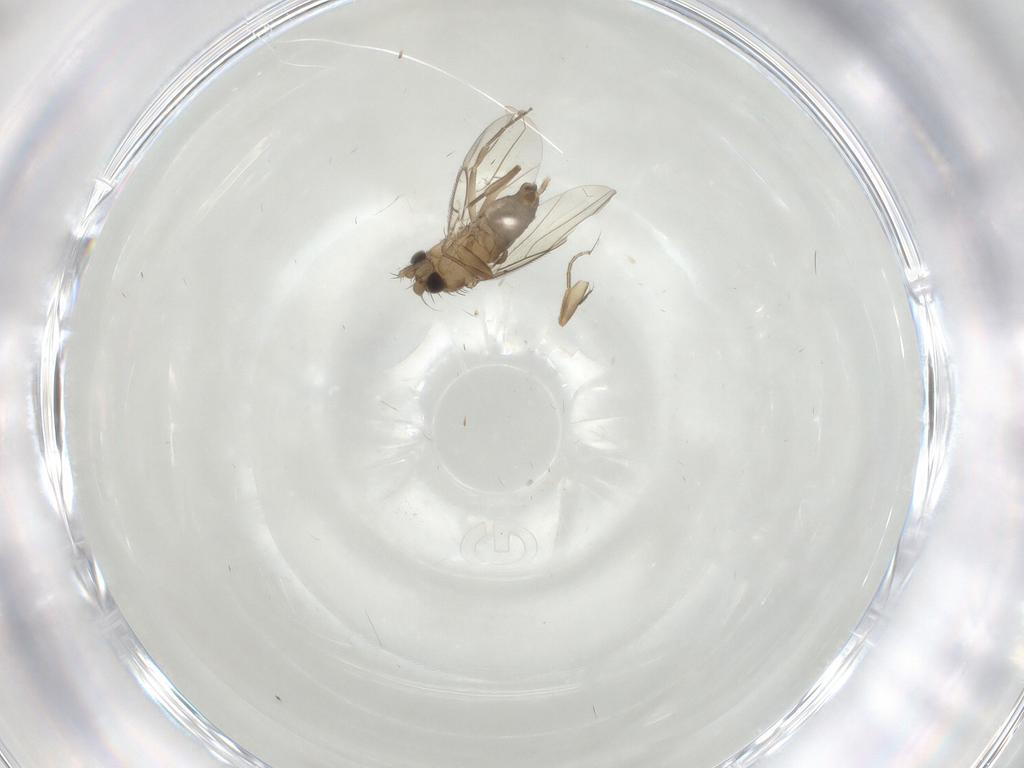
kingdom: Animalia
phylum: Arthropoda
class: Insecta
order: Diptera
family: Phoridae
